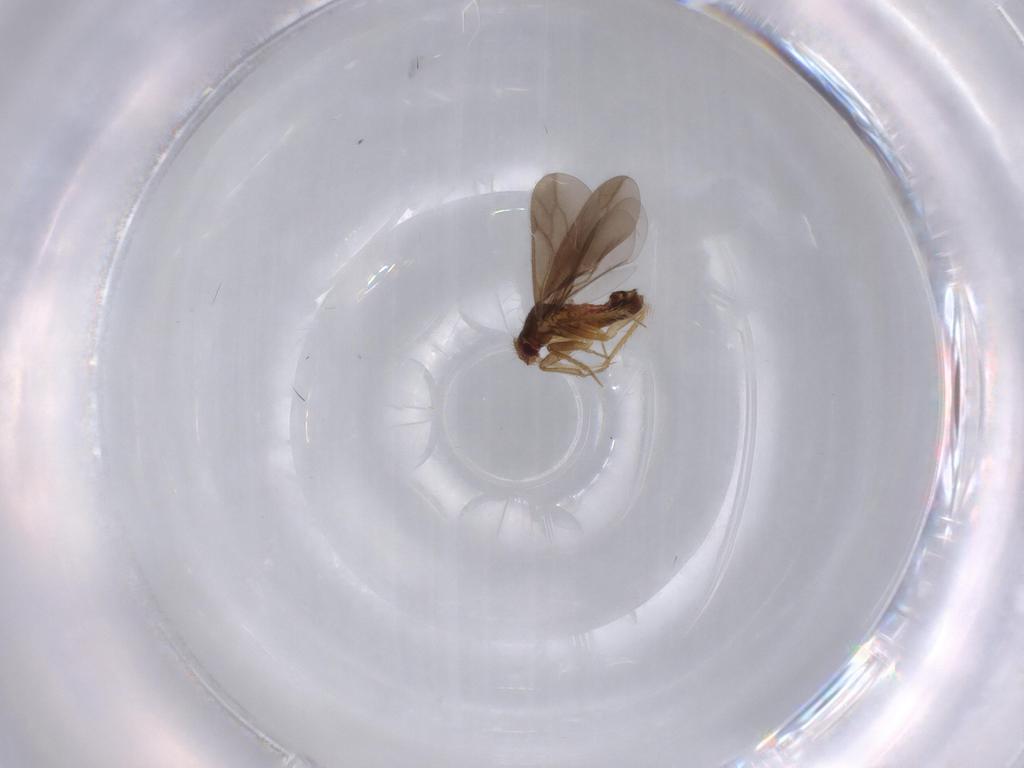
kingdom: Animalia
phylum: Arthropoda
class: Insecta
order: Hemiptera
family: Ceratocombidae
